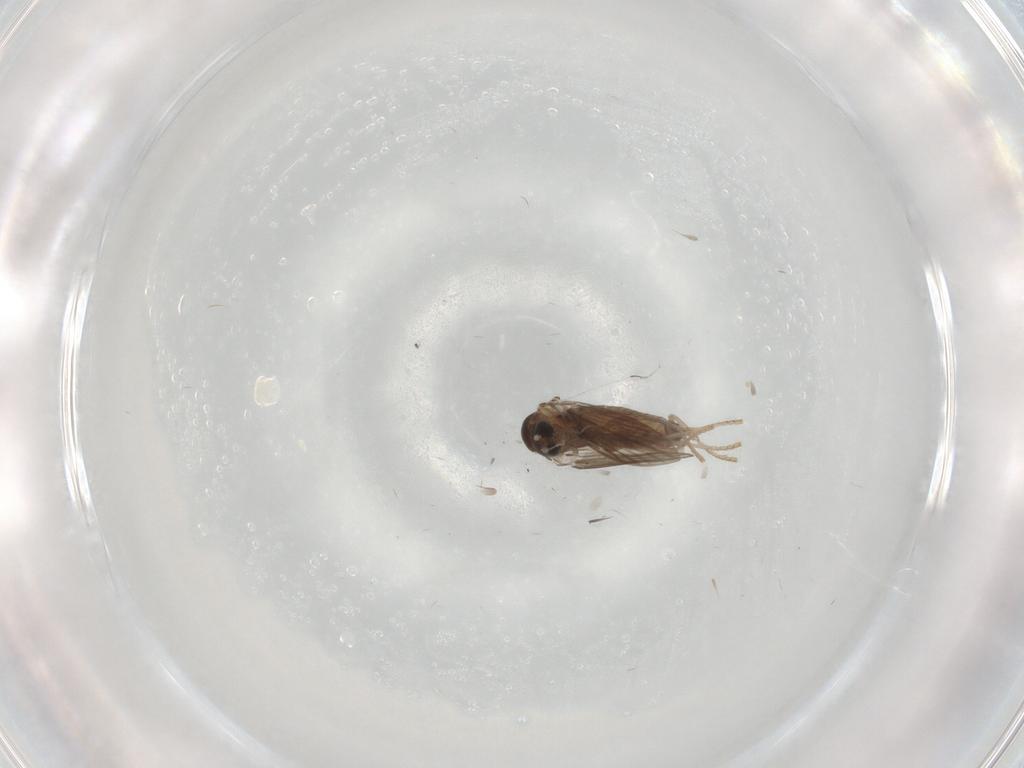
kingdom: Animalia
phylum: Arthropoda
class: Insecta
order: Diptera
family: Psychodidae
